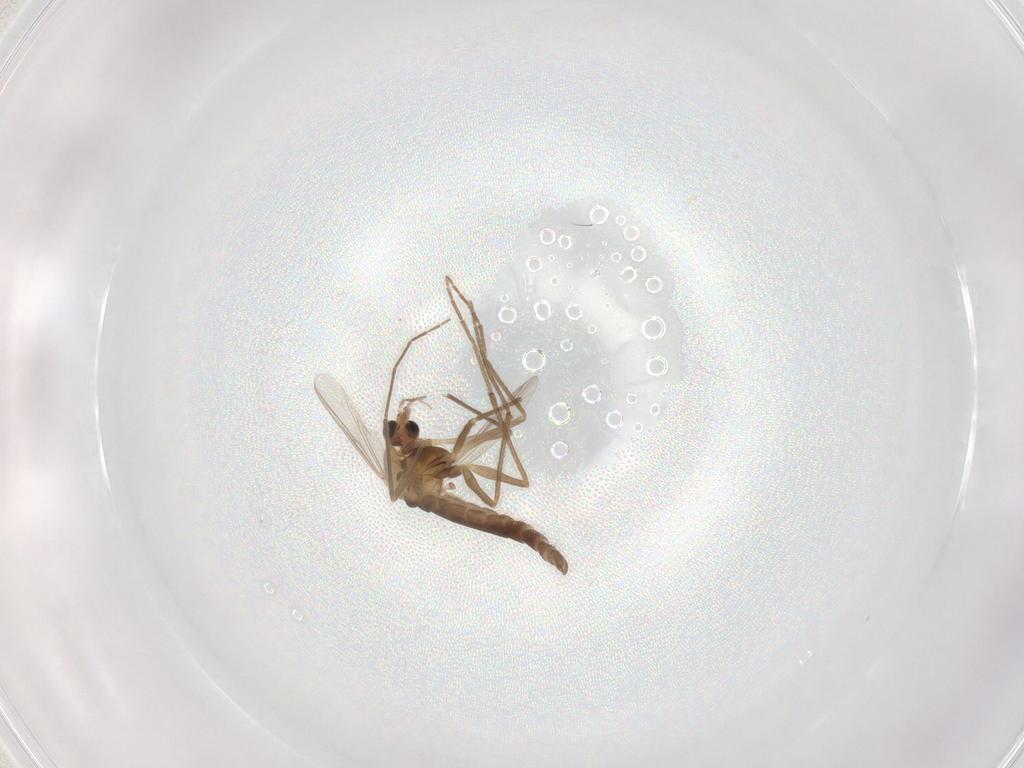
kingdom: Animalia
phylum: Arthropoda
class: Insecta
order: Diptera
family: Chironomidae
